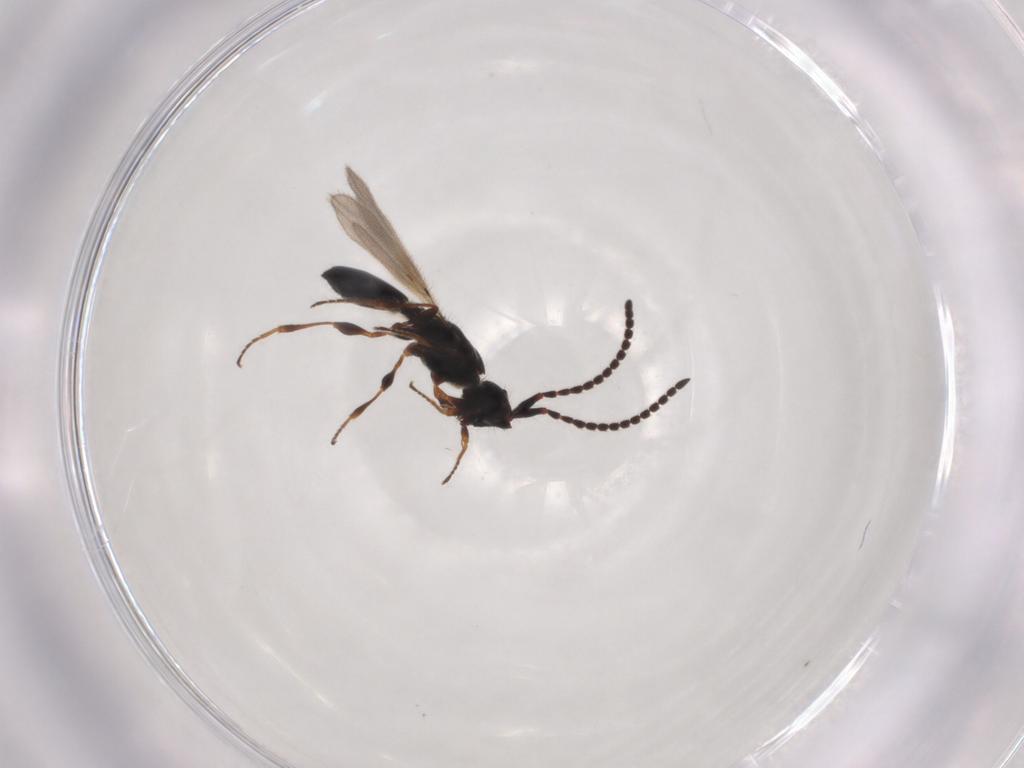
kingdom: Animalia
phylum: Arthropoda
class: Insecta
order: Hymenoptera
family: Diapriidae
